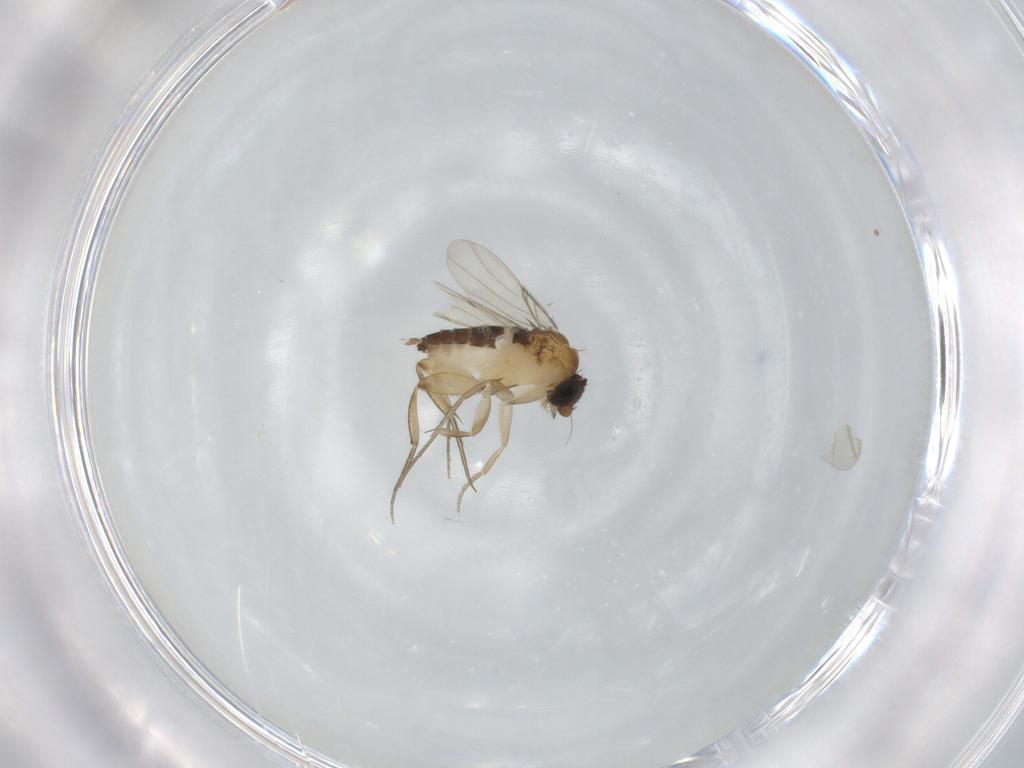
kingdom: Animalia
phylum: Arthropoda
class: Insecta
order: Diptera
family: Phoridae
